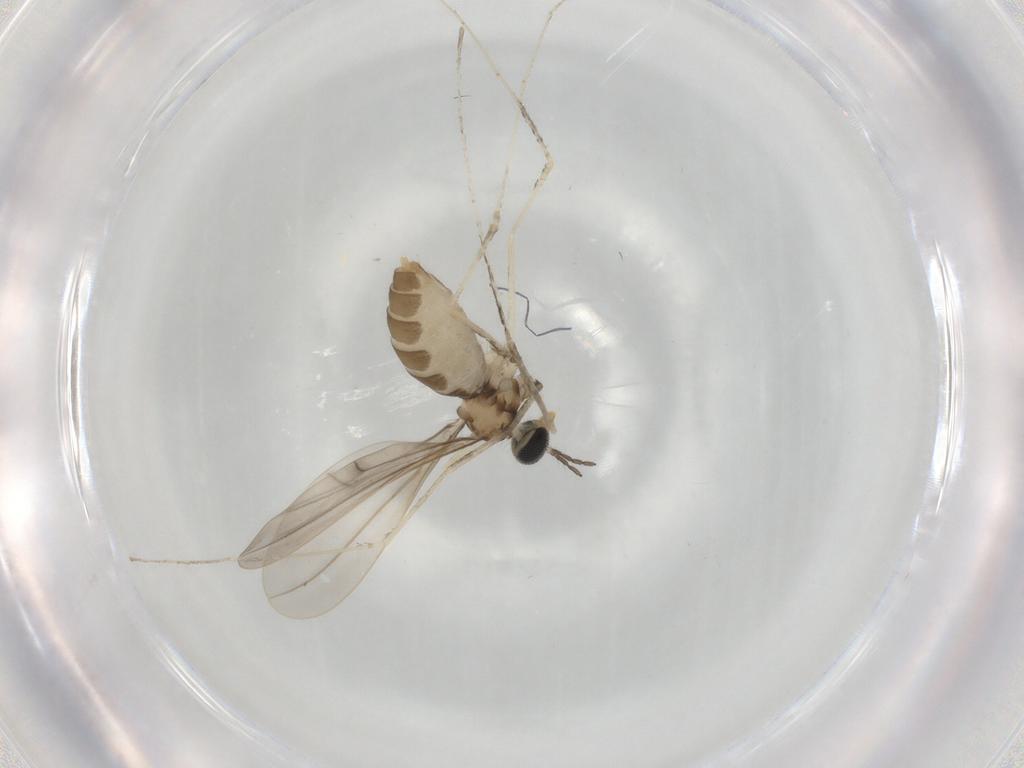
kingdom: Animalia
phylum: Arthropoda
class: Insecta
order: Diptera
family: Cecidomyiidae
